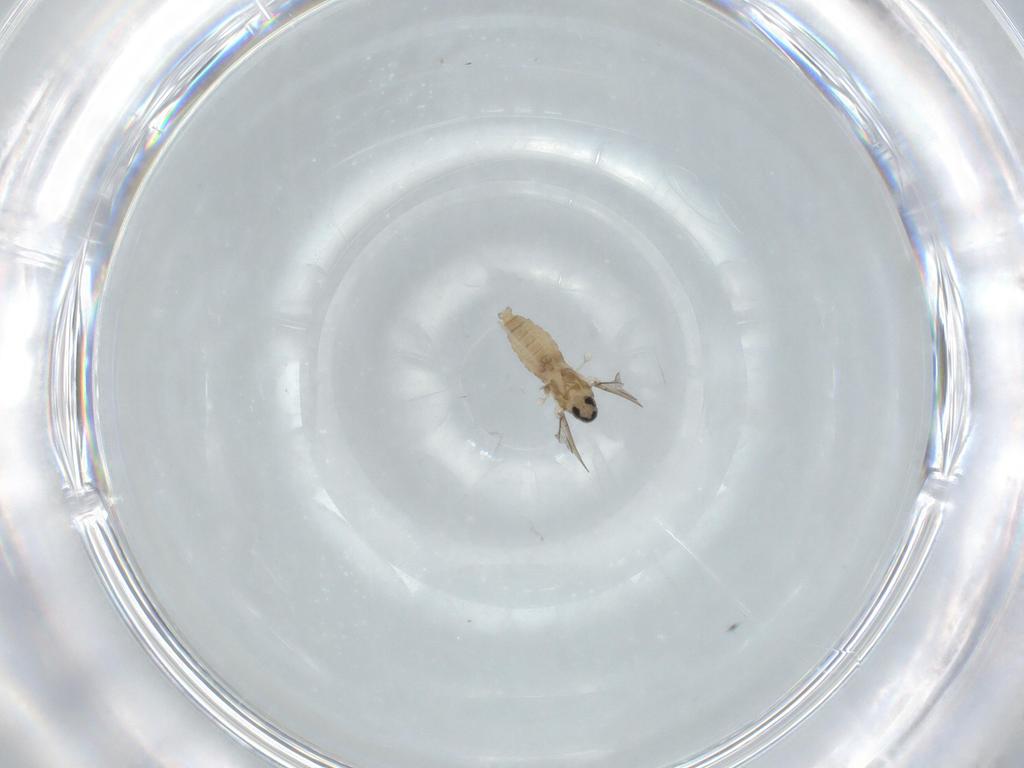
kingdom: Animalia
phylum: Arthropoda
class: Insecta
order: Diptera
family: Cecidomyiidae
